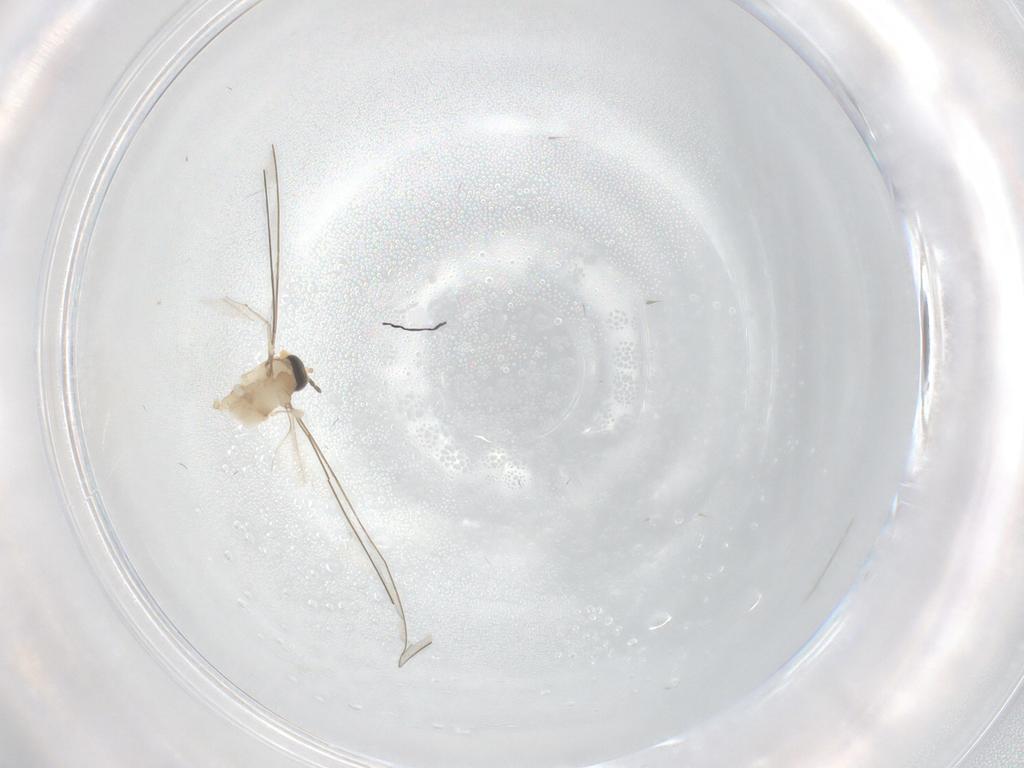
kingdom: Animalia
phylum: Arthropoda
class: Insecta
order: Diptera
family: Cecidomyiidae
